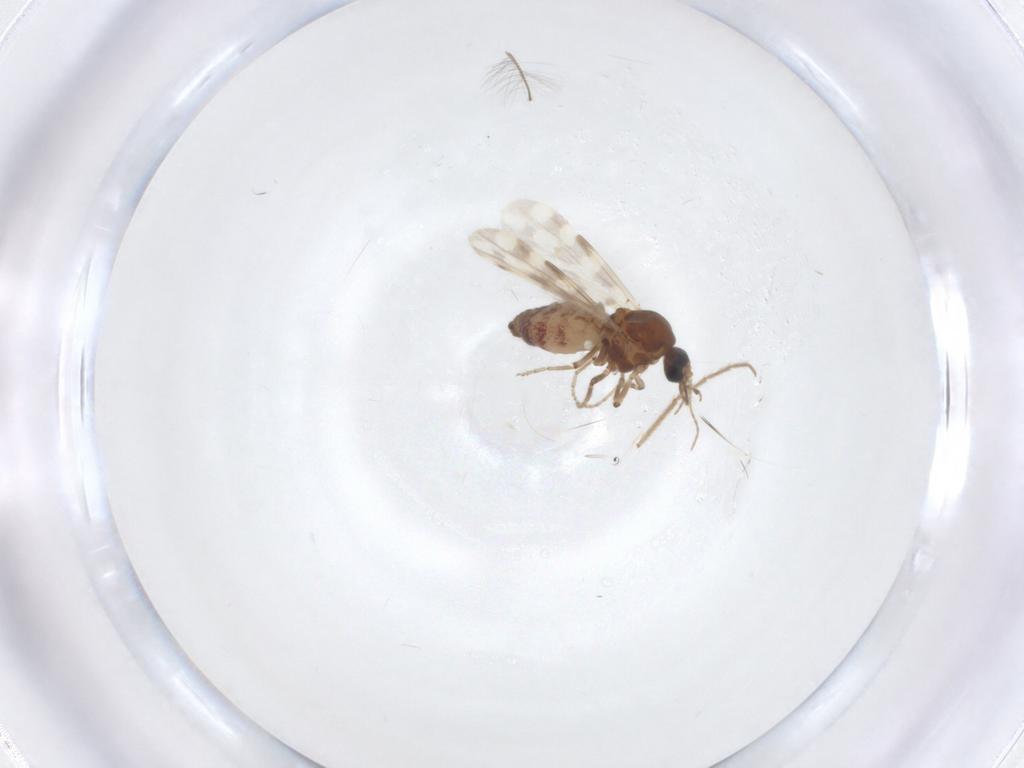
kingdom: Animalia
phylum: Arthropoda
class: Insecta
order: Diptera
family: Ceratopogonidae
